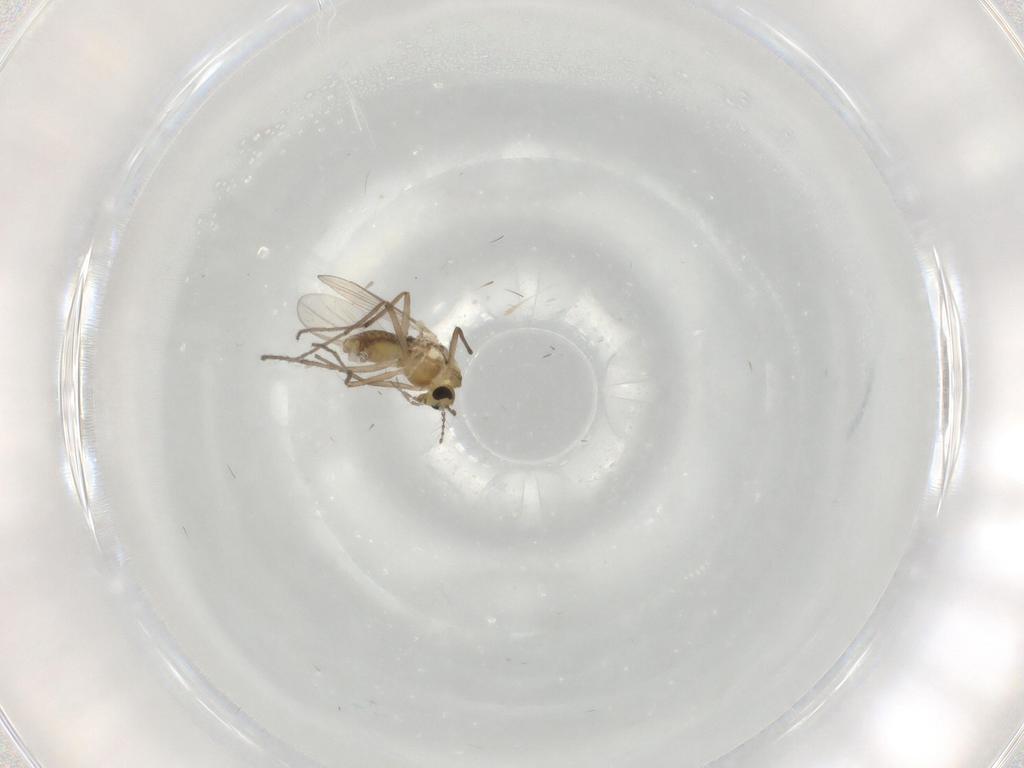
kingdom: Animalia
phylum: Arthropoda
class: Insecta
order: Diptera
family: Chironomidae
